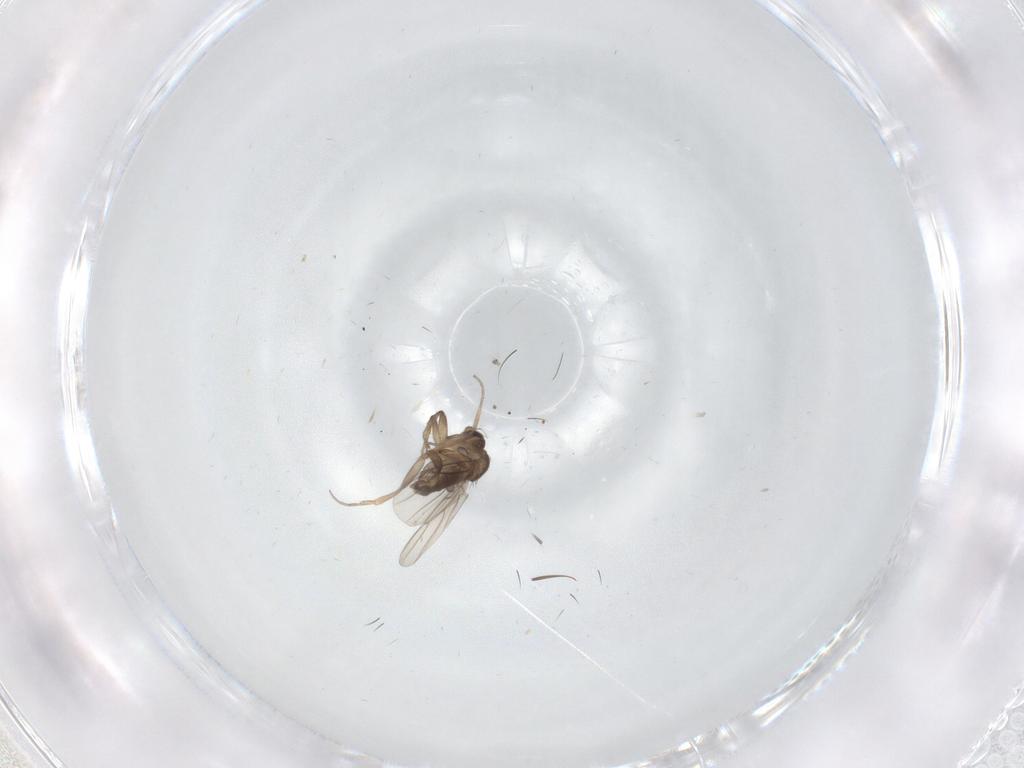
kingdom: Animalia
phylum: Arthropoda
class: Insecta
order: Diptera
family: Phoridae
